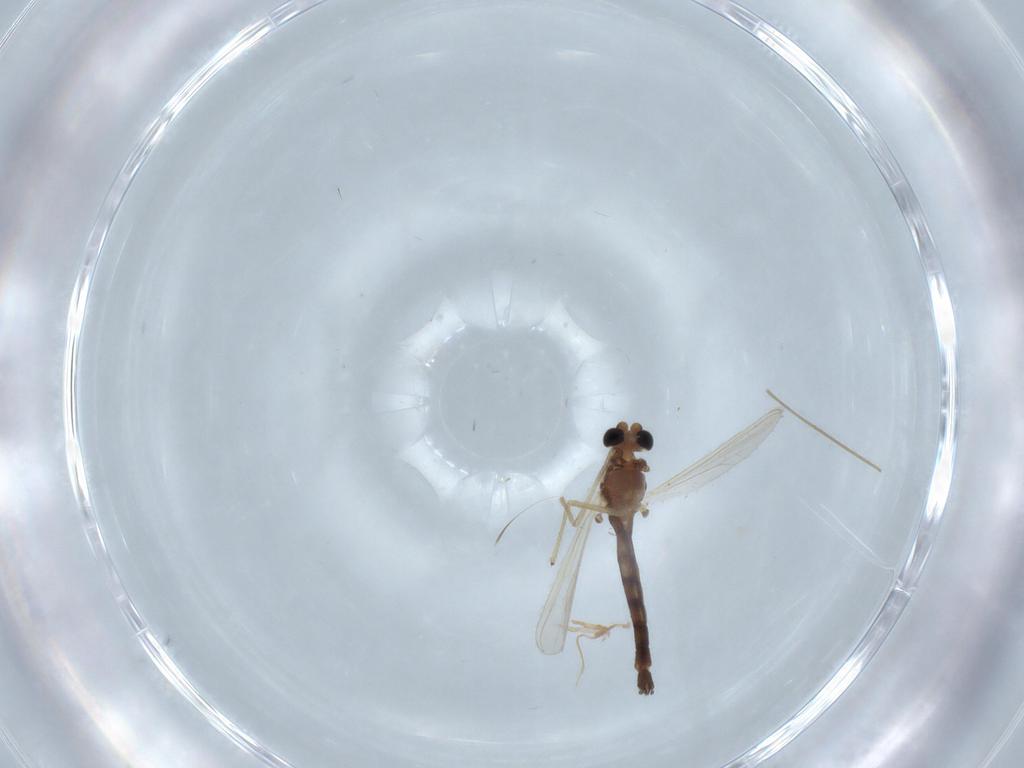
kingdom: Animalia
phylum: Arthropoda
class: Insecta
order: Diptera
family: Chironomidae
